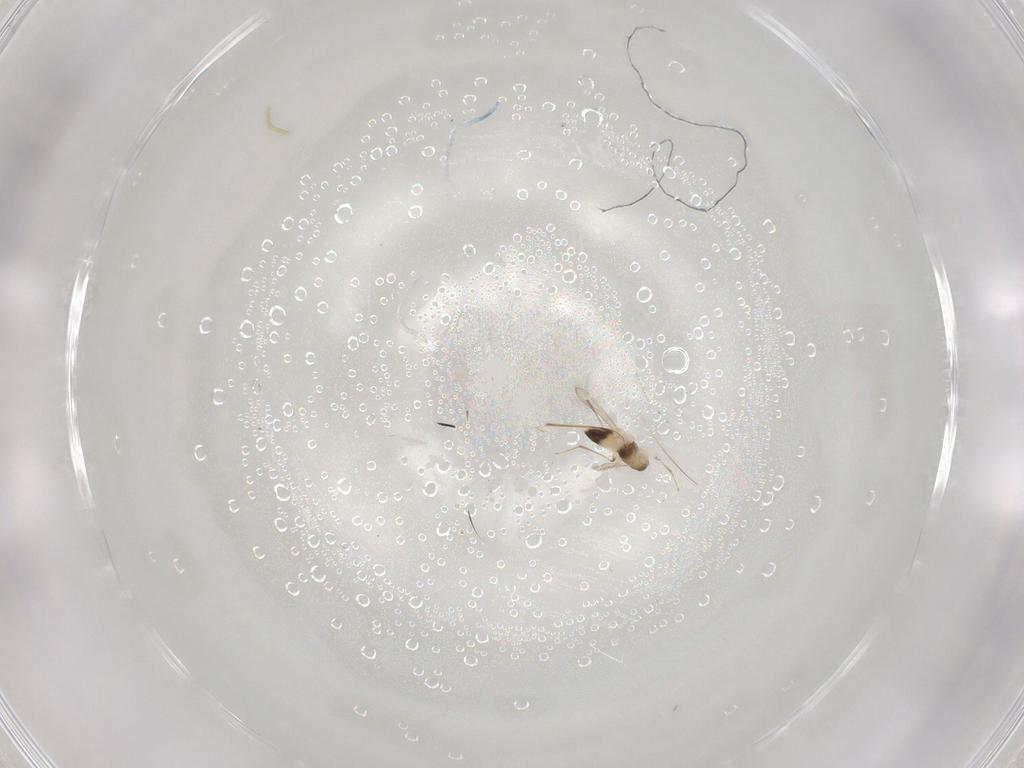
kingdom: Animalia
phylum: Arthropoda
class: Insecta
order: Hymenoptera
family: Mymaridae
